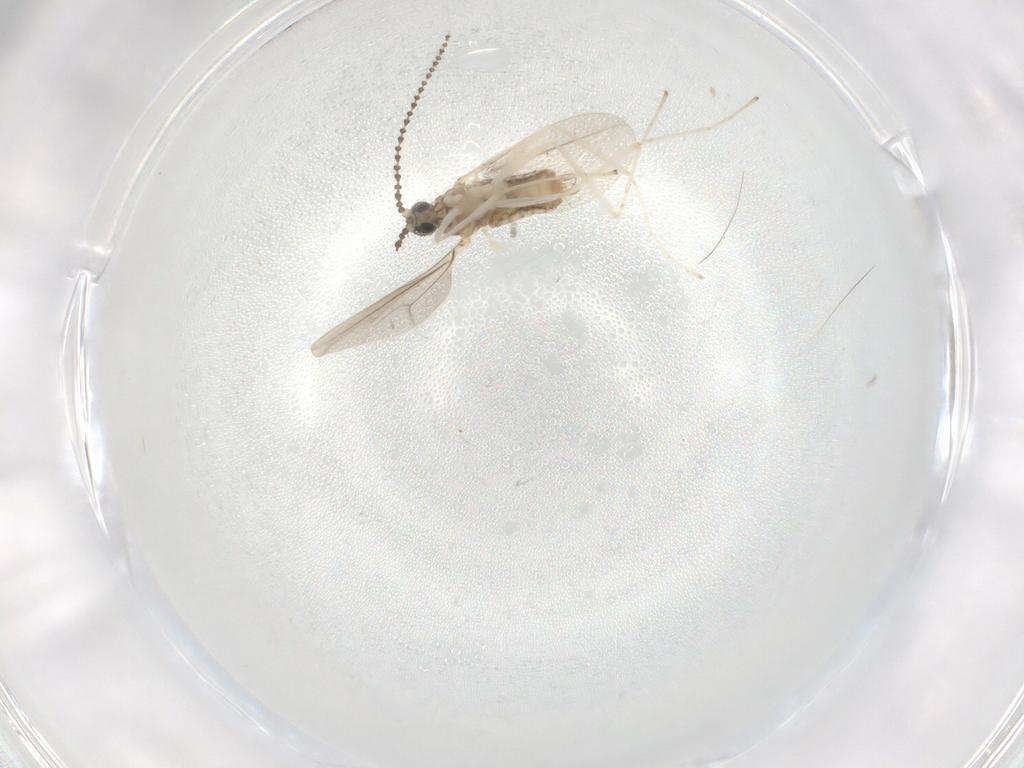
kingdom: Animalia
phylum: Arthropoda
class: Insecta
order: Diptera
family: Milichiidae
